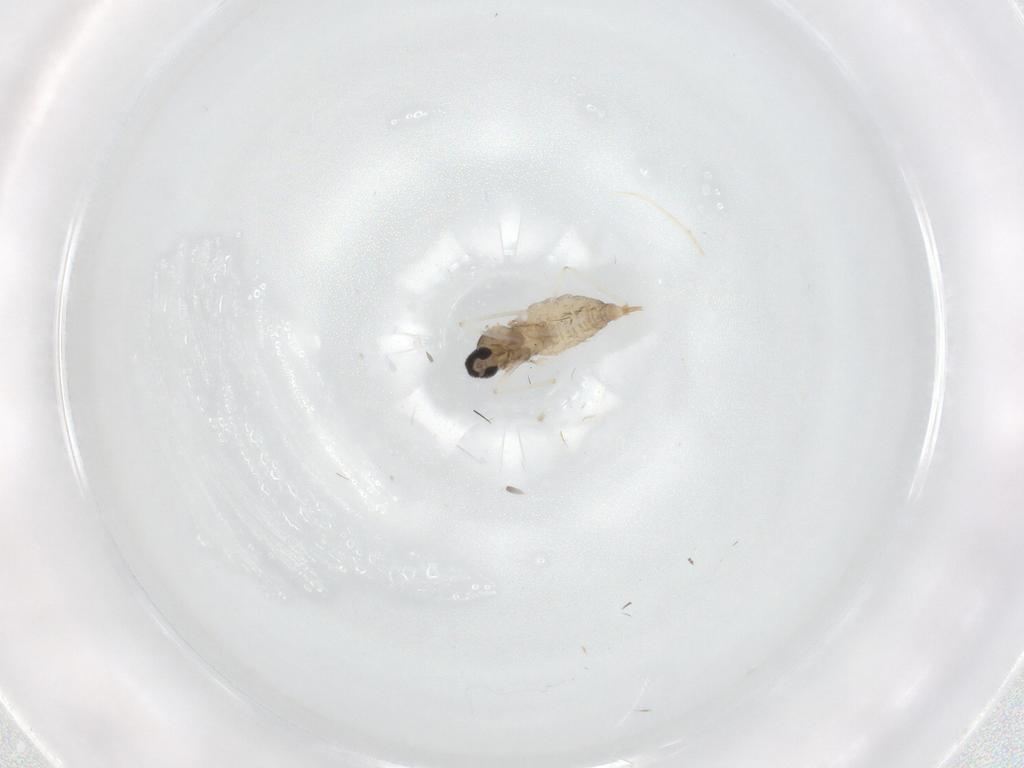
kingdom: Animalia
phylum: Arthropoda
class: Insecta
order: Diptera
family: Cecidomyiidae
